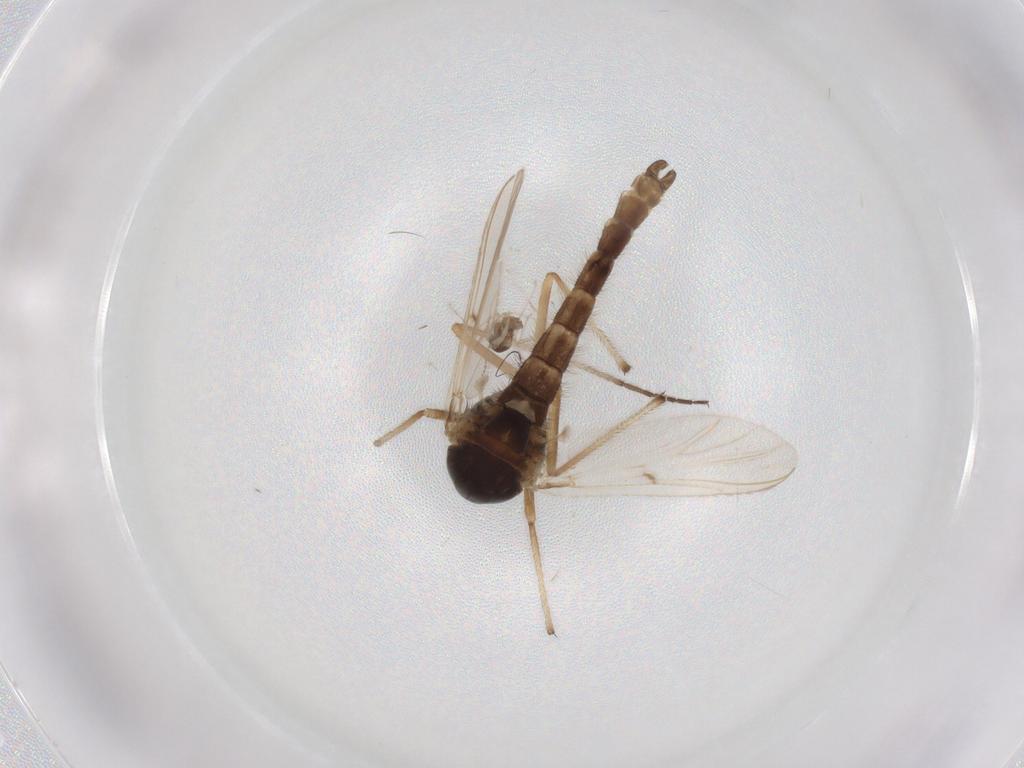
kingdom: Animalia
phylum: Arthropoda
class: Insecta
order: Diptera
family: Chironomidae
